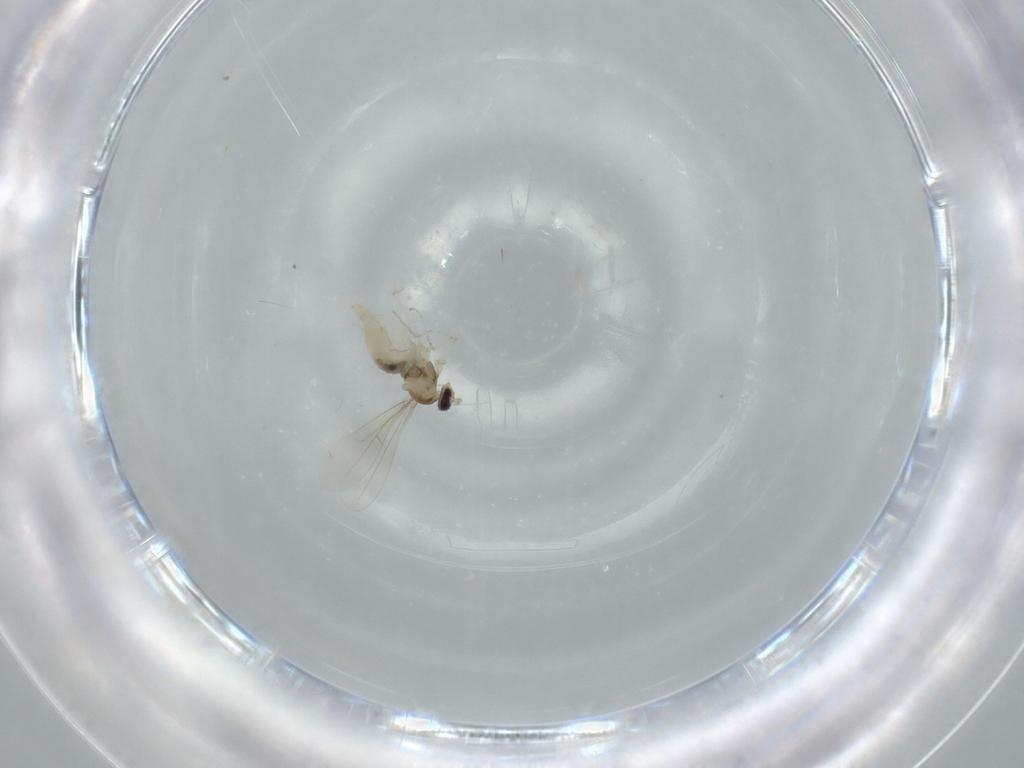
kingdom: Animalia
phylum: Arthropoda
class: Insecta
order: Diptera
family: Cecidomyiidae
